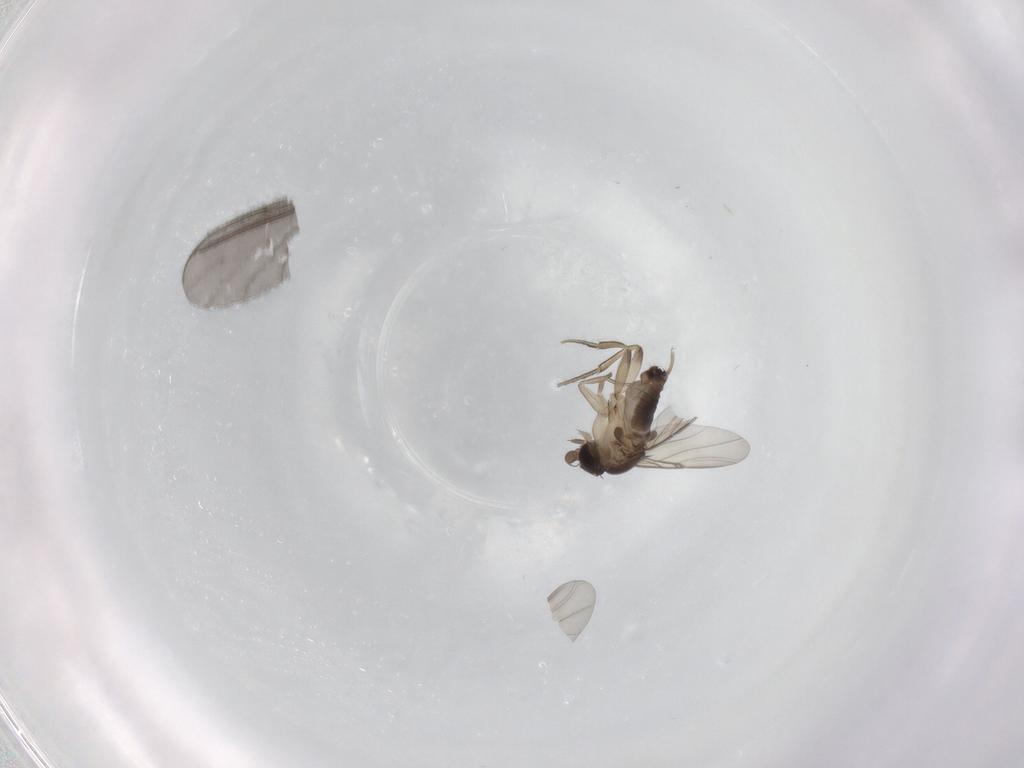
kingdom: Animalia
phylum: Arthropoda
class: Insecta
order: Diptera
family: Phoridae
